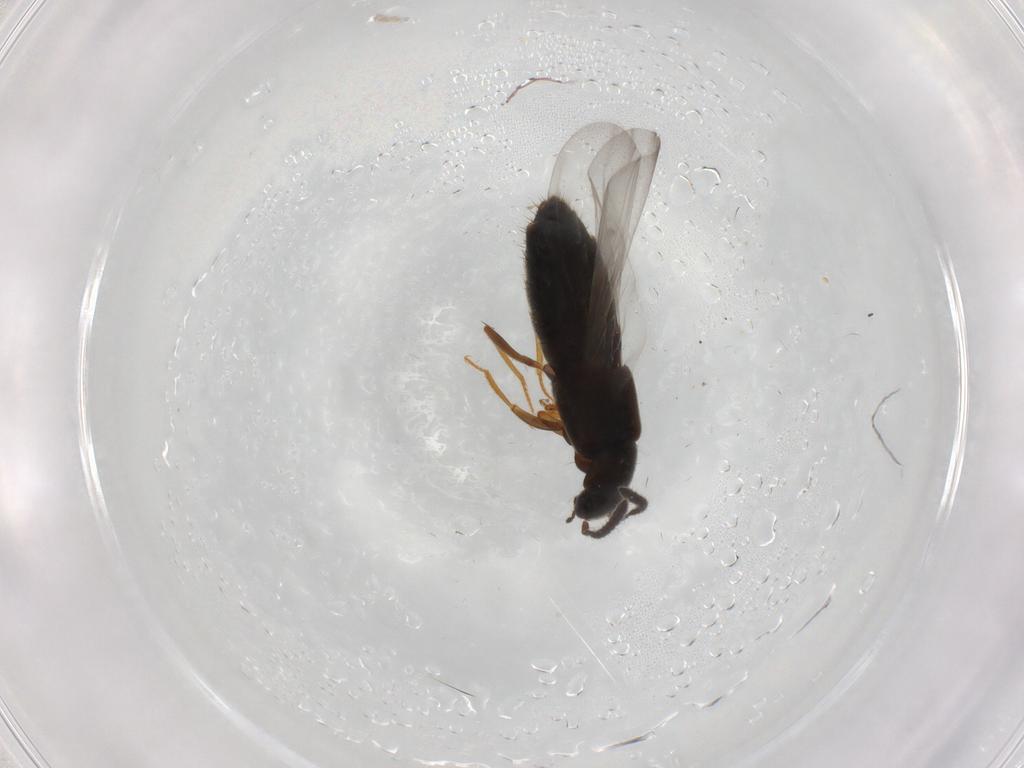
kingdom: Animalia
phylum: Arthropoda
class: Insecta
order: Coleoptera
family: Staphylinidae
